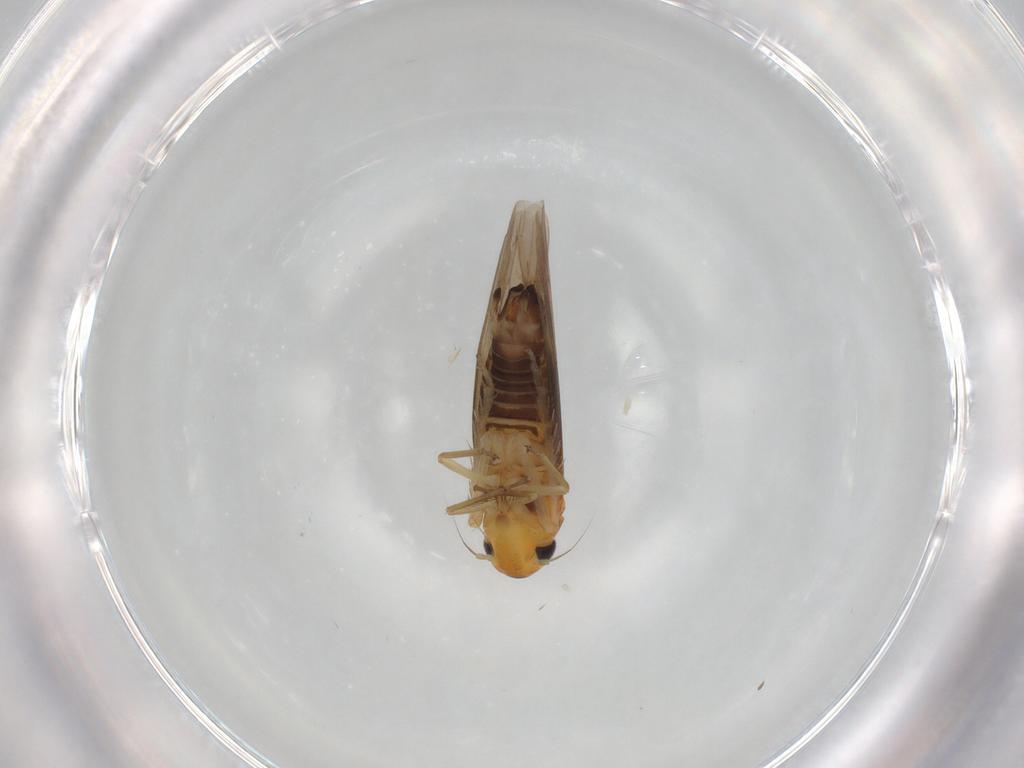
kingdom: Animalia
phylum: Arthropoda
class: Insecta
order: Hemiptera
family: Cicadellidae
